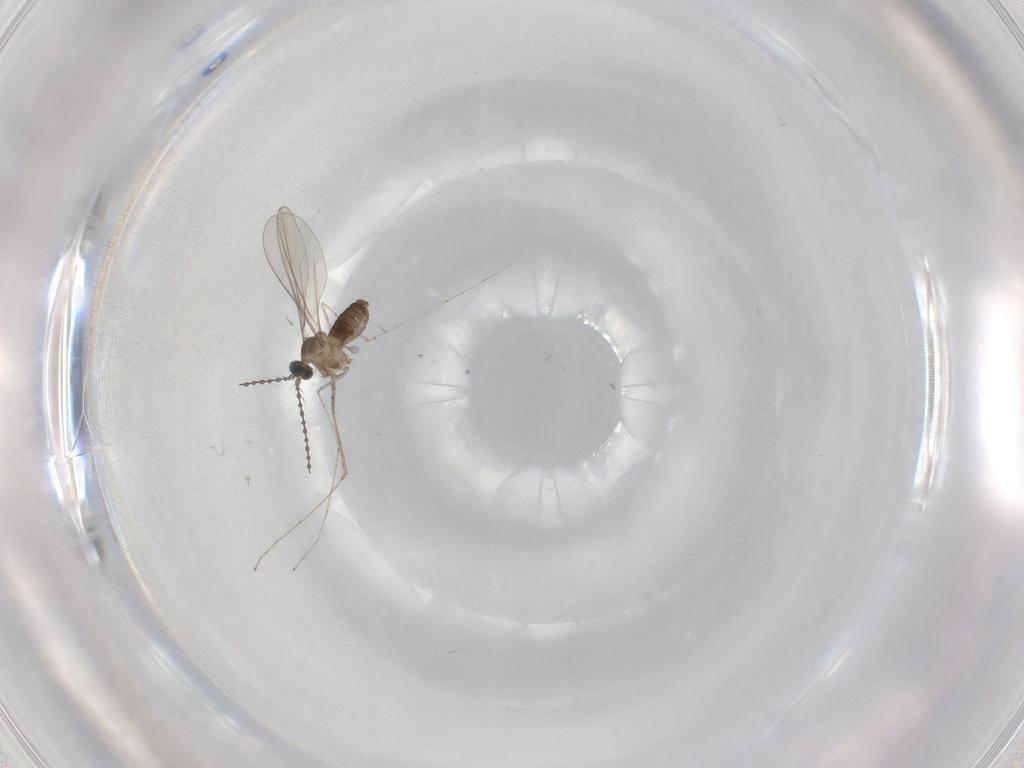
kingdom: Animalia
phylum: Arthropoda
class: Insecta
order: Diptera
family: Cecidomyiidae
